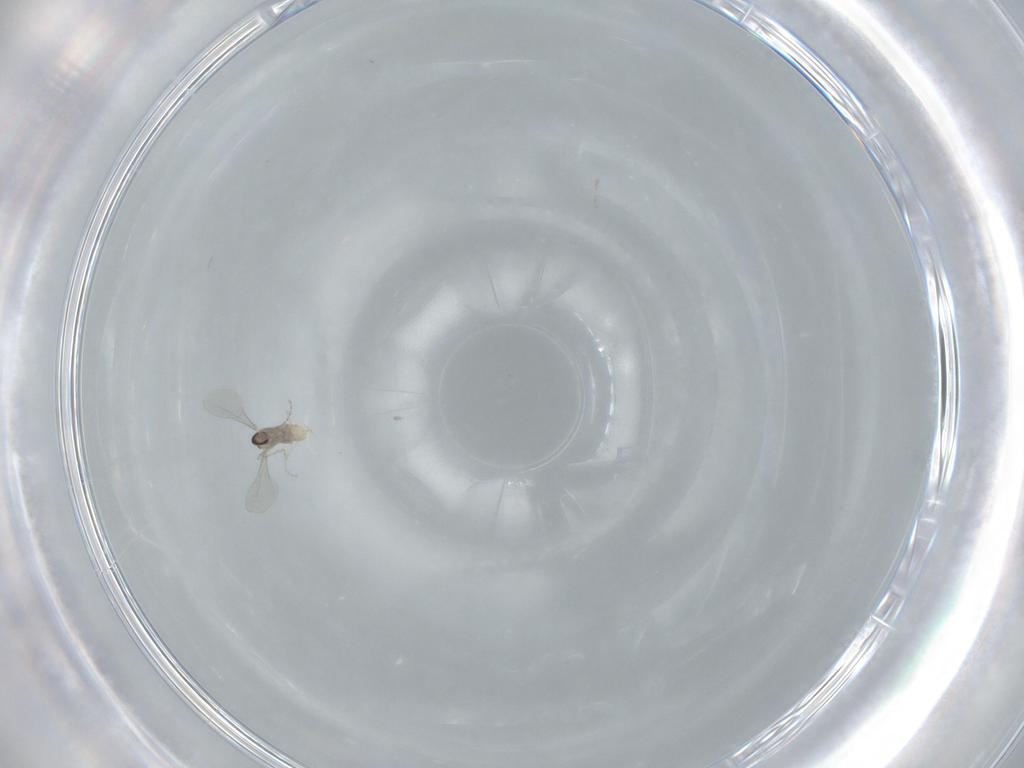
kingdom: Animalia
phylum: Arthropoda
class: Insecta
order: Diptera
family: Cecidomyiidae
